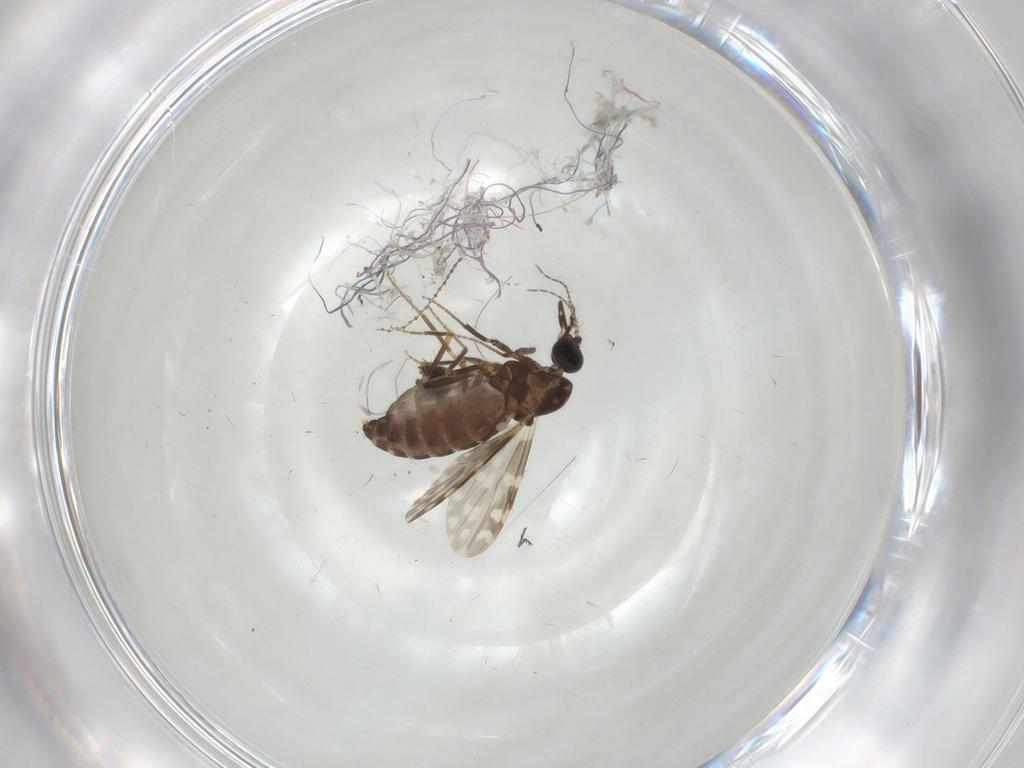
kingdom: Animalia
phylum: Arthropoda
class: Insecta
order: Diptera
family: Ceratopogonidae
